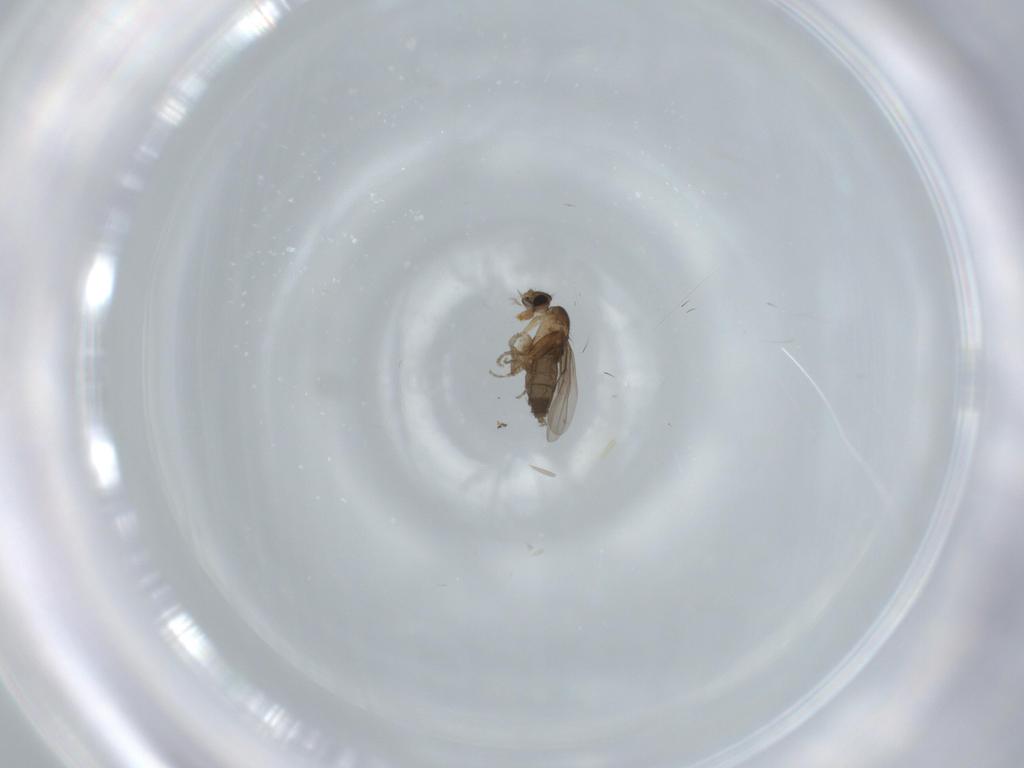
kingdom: Animalia
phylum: Arthropoda
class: Insecta
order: Diptera
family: Phoridae
